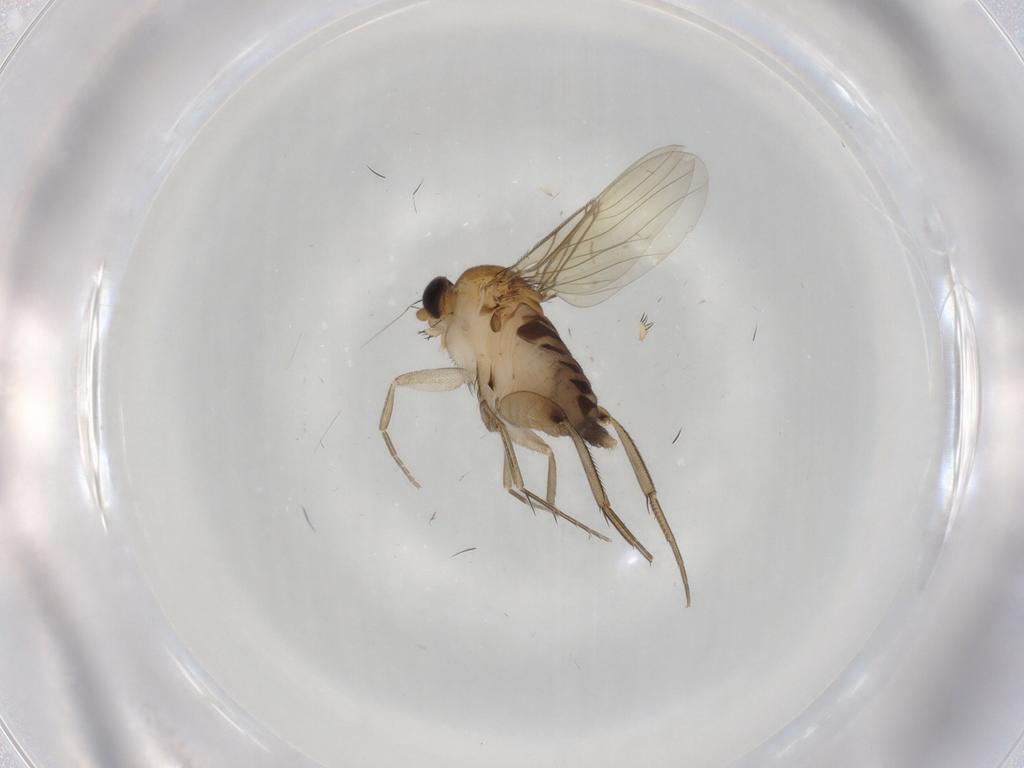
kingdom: Animalia
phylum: Arthropoda
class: Insecta
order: Diptera
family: Phoridae
